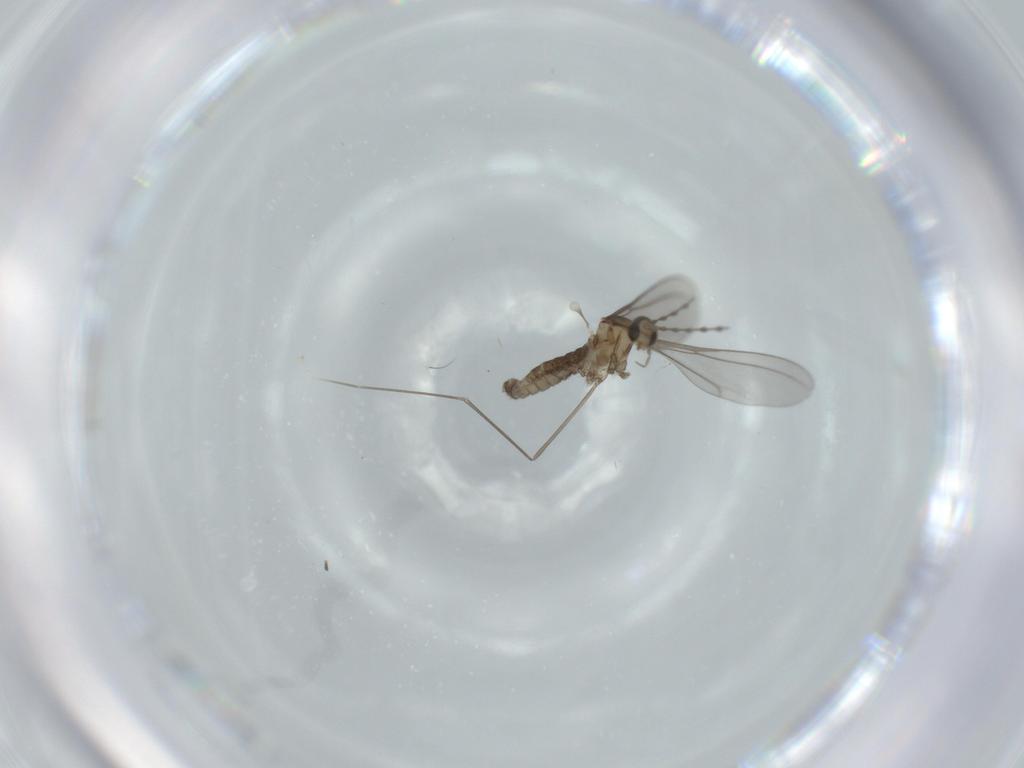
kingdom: Animalia
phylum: Arthropoda
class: Insecta
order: Diptera
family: Cecidomyiidae
